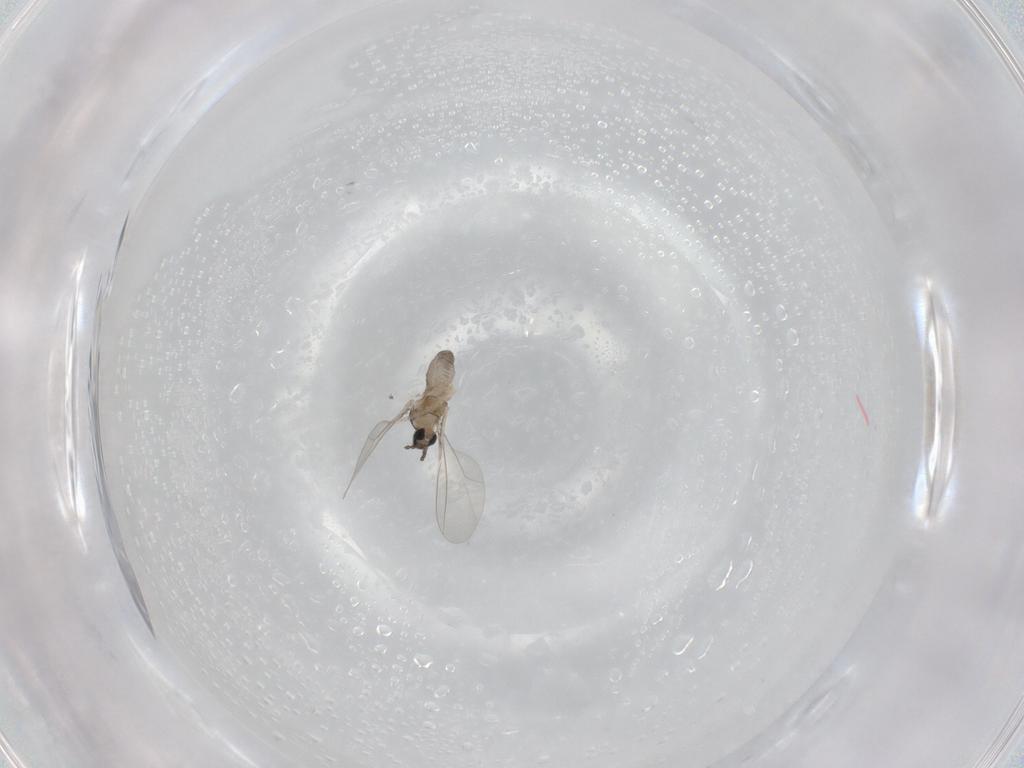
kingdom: Animalia
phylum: Arthropoda
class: Insecta
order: Diptera
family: Cecidomyiidae
